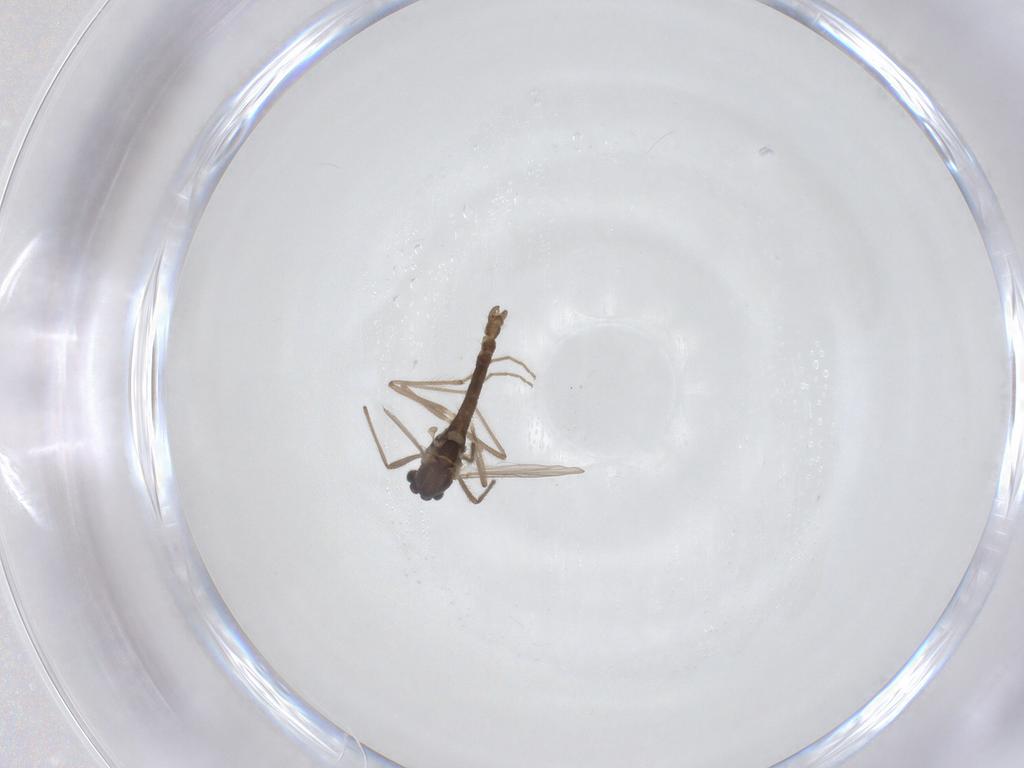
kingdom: Animalia
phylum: Arthropoda
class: Insecta
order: Diptera
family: Chironomidae
